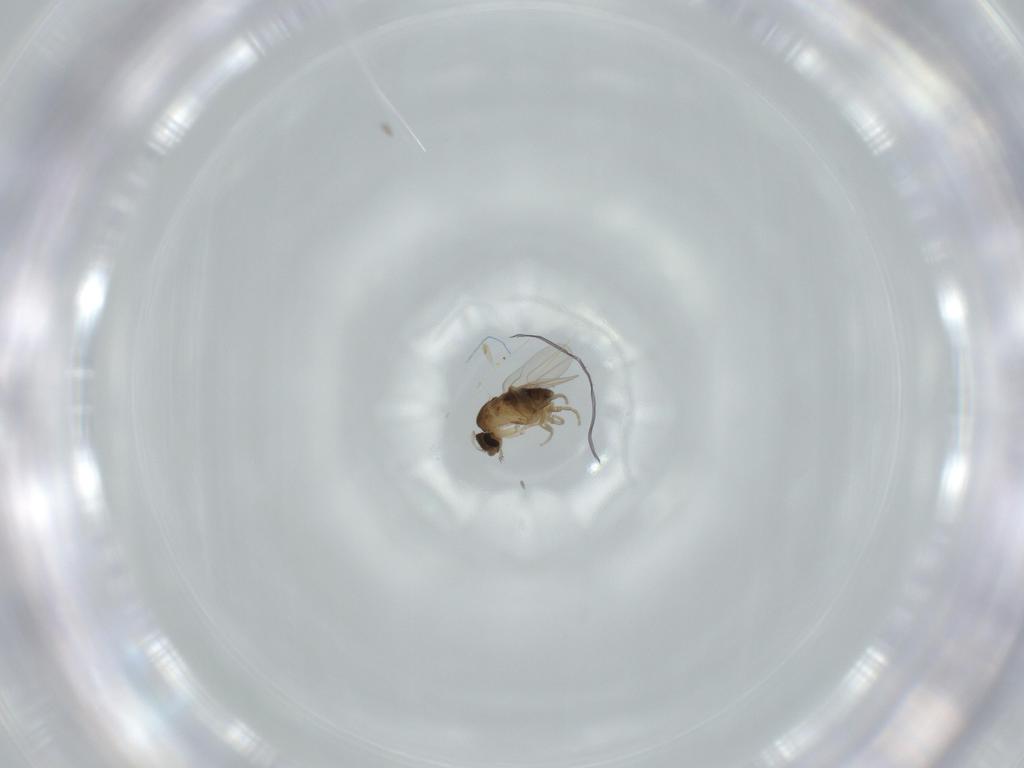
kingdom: Animalia
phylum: Arthropoda
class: Insecta
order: Diptera
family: Phoridae
